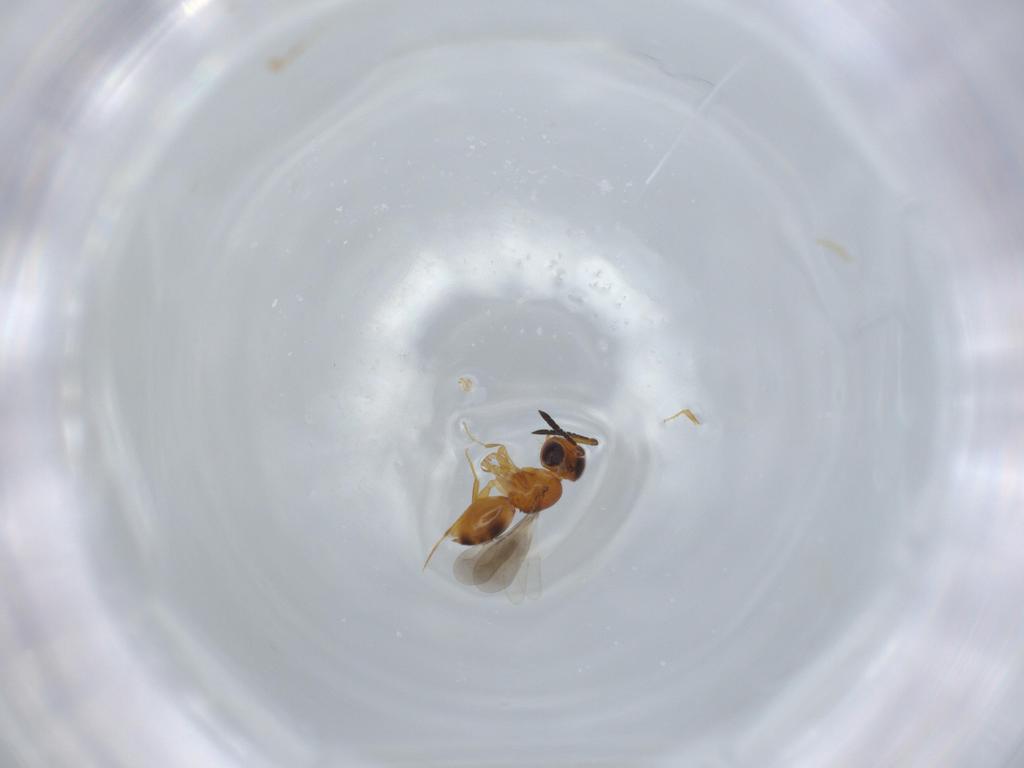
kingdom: Animalia
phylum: Arthropoda
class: Insecta
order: Hymenoptera
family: Ceraphronidae
